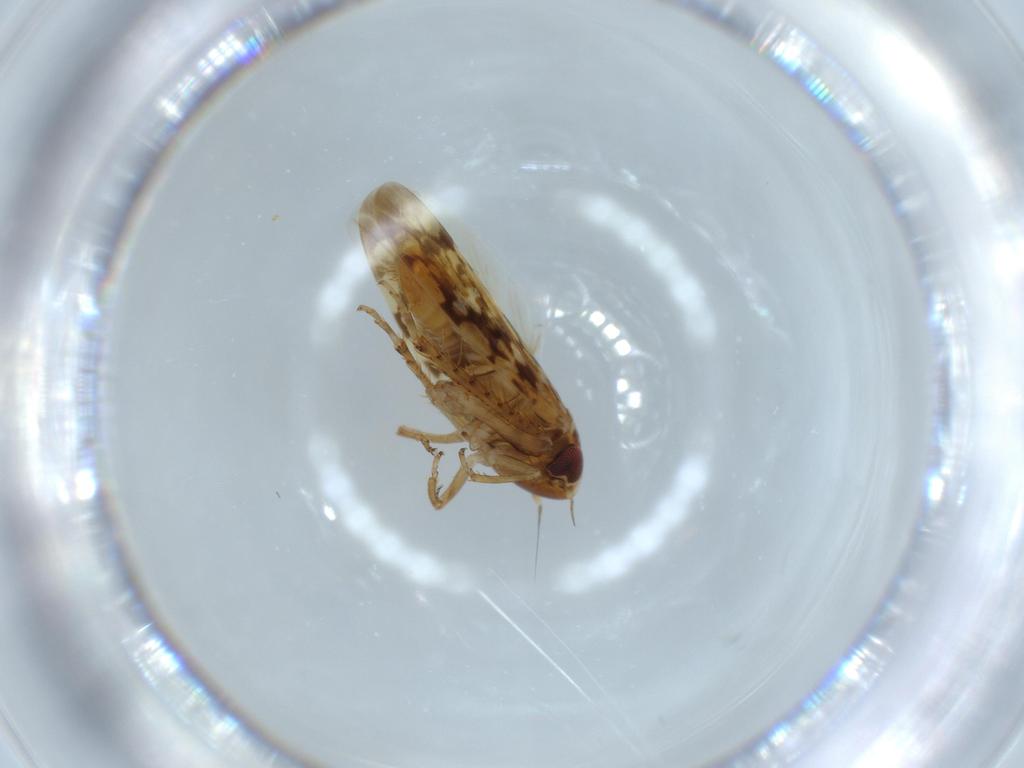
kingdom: Animalia
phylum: Arthropoda
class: Insecta
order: Hemiptera
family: Cicadellidae
